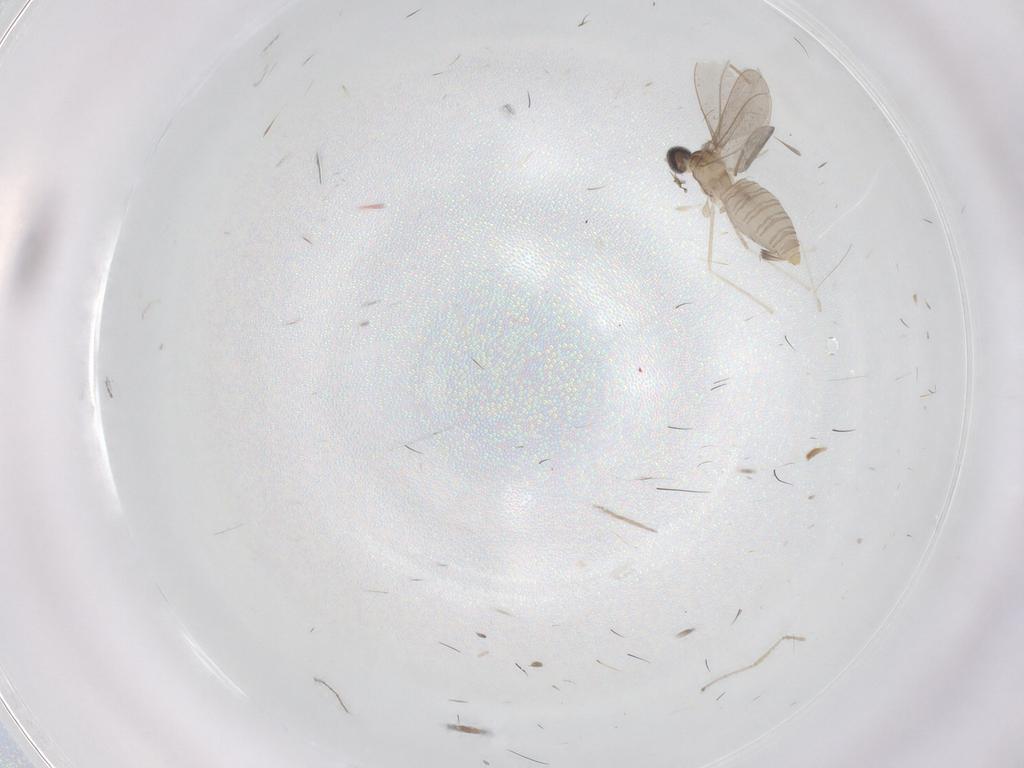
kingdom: Animalia
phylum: Arthropoda
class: Insecta
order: Diptera
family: Cecidomyiidae
